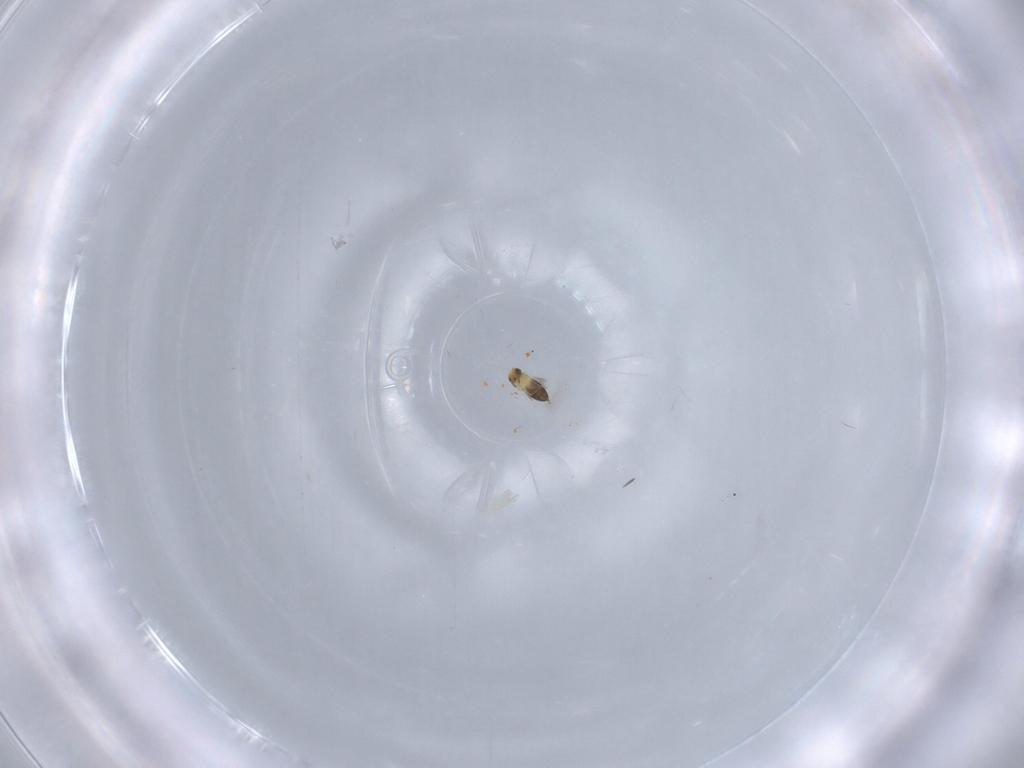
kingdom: Animalia
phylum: Arthropoda
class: Insecta
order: Hymenoptera
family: Signiphoridae
